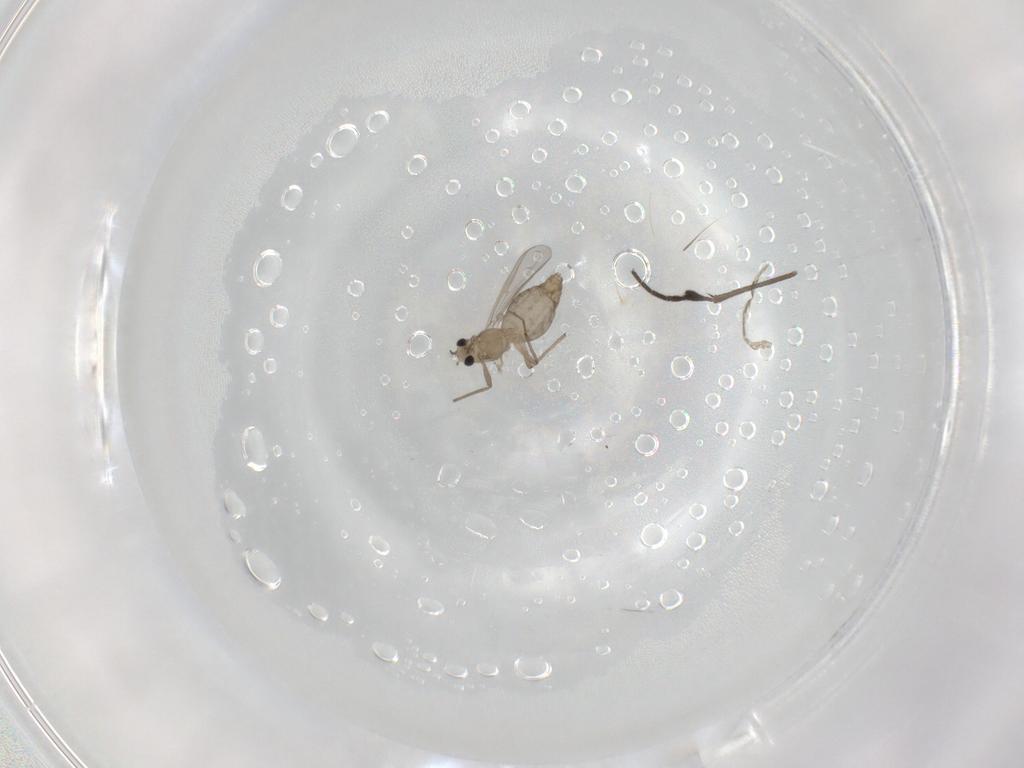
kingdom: Animalia
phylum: Arthropoda
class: Insecta
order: Diptera
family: Chironomidae
